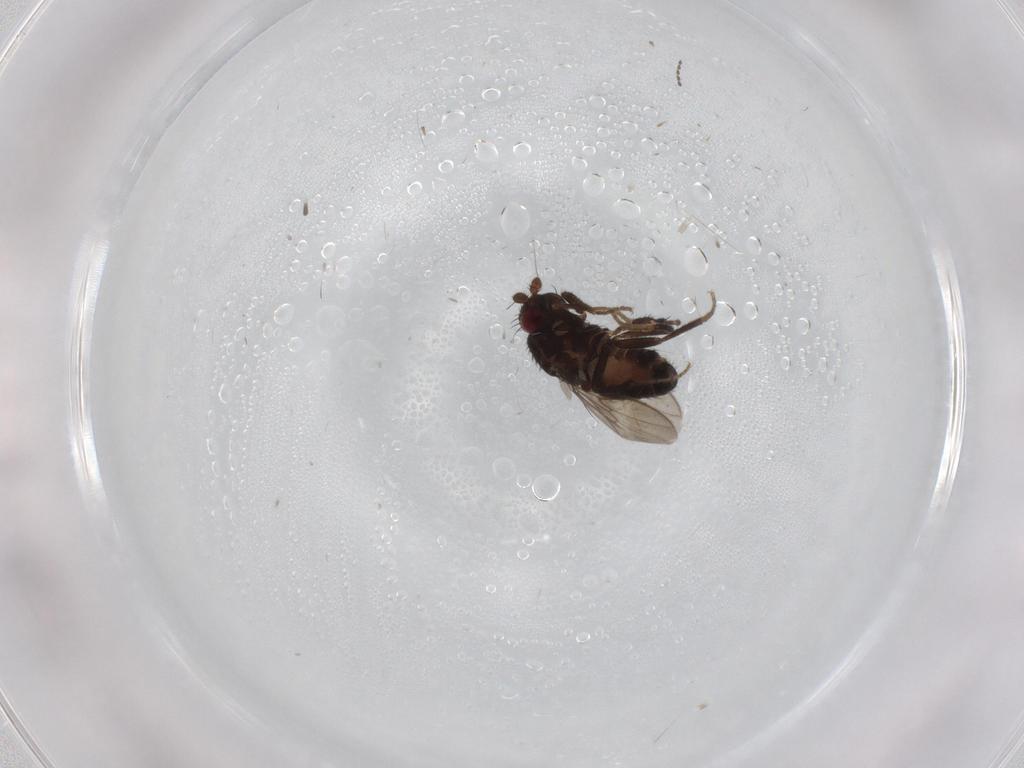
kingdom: Animalia
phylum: Arthropoda
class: Insecta
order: Diptera
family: Sphaeroceridae
